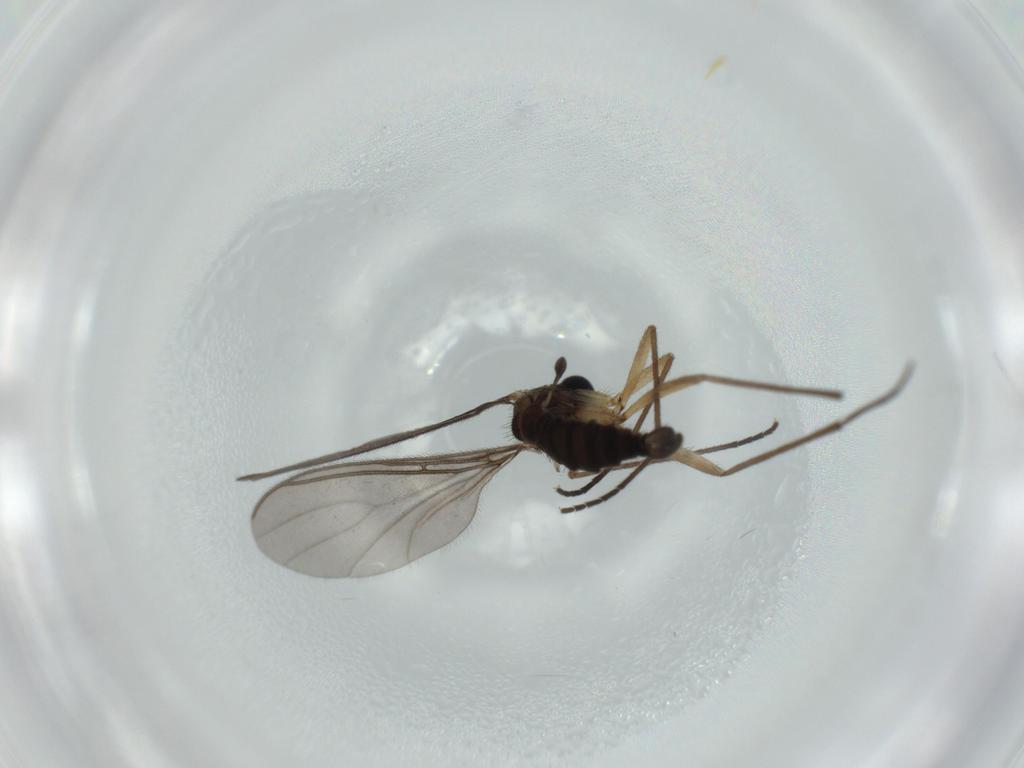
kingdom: Animalia
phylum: Arthropoda
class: Insecta
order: Diptera
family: Sciaridae
